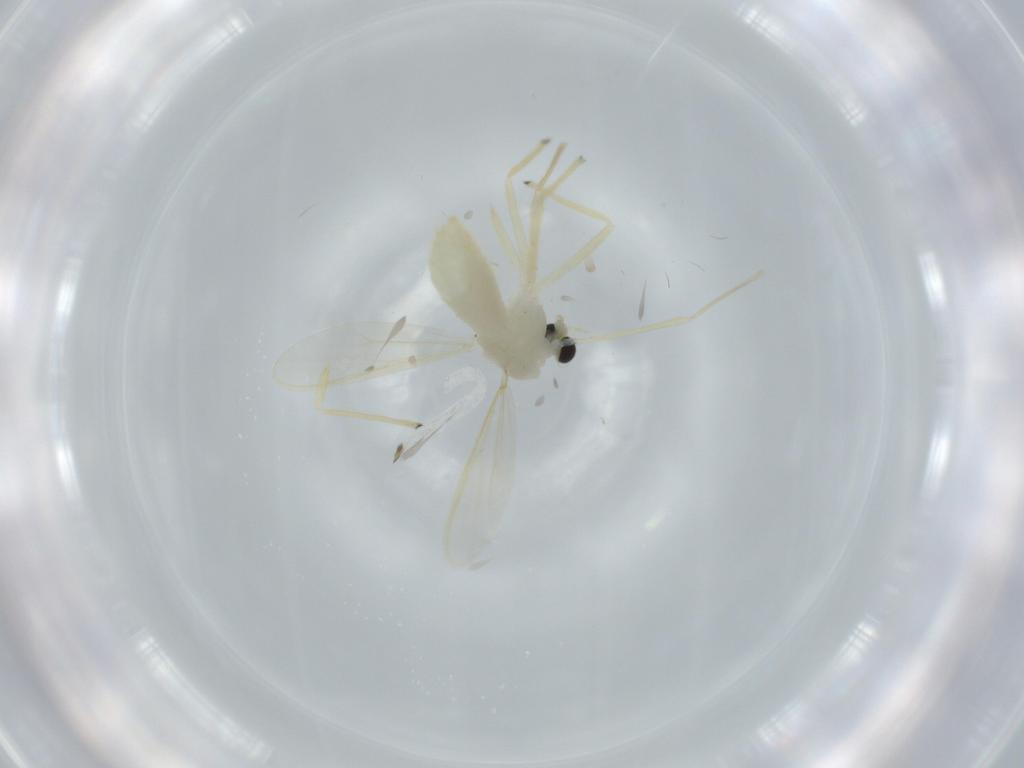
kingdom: Animalia
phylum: Arthropoda
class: Insecta
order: Diptera
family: Chironomidae
